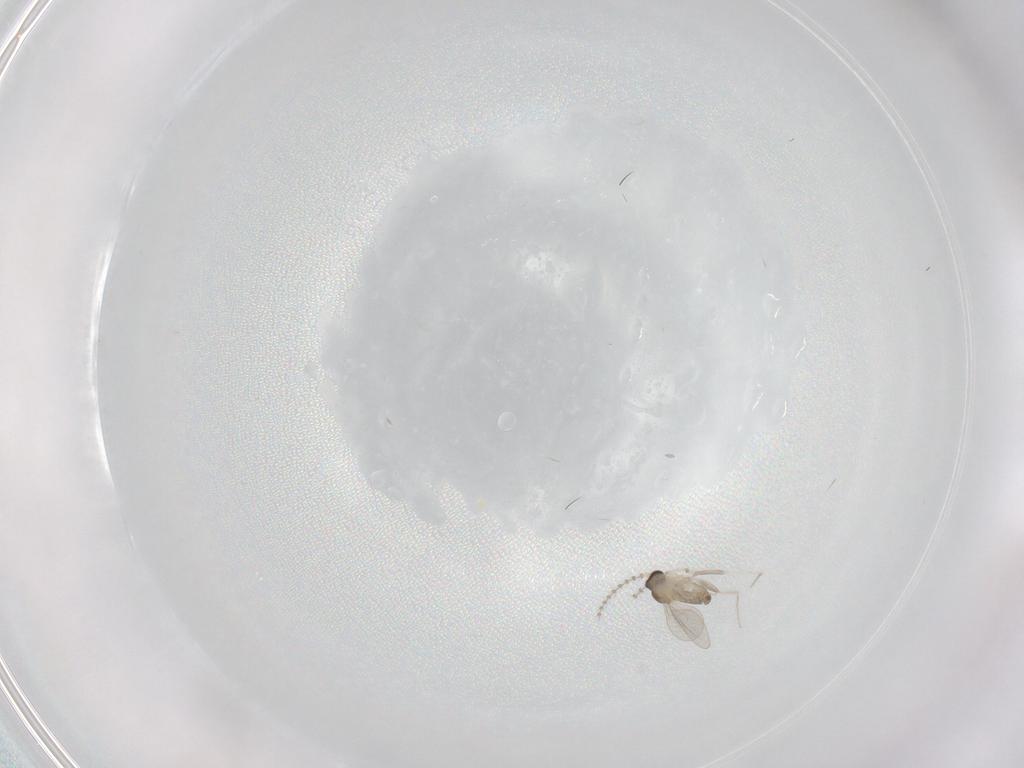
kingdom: Animalia
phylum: Arthropoda
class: Insecta
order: Diptera
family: Cecidomyiidae
